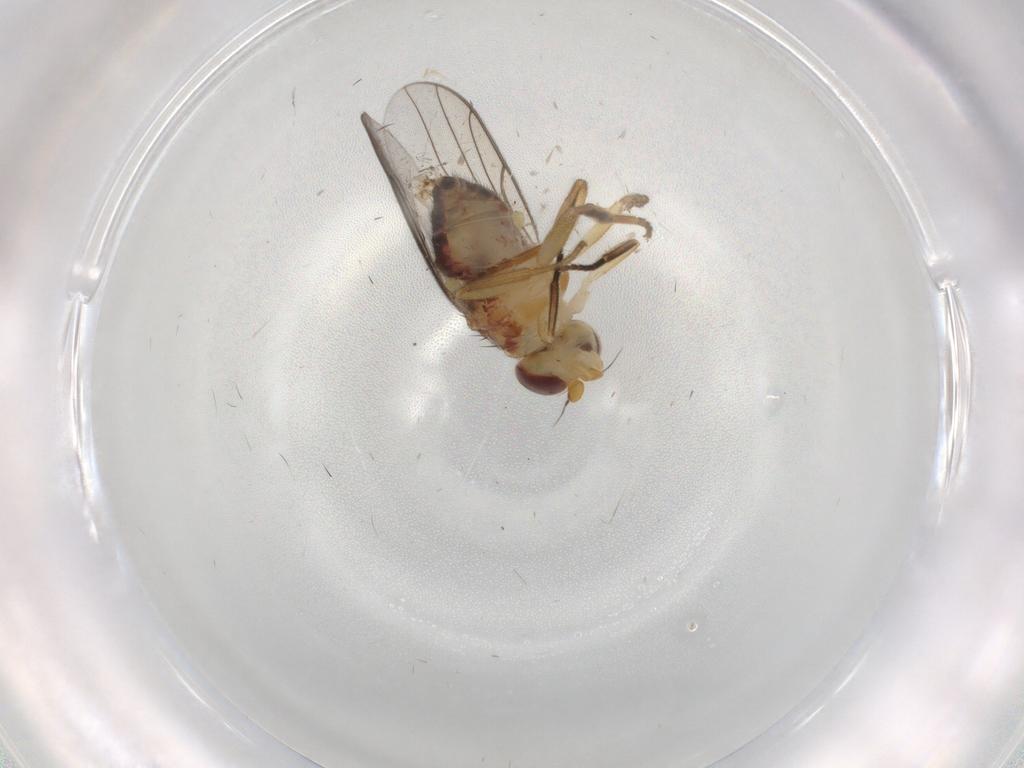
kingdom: Animalia
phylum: Arthropoda
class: Insecta
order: Diptera
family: Chloropidae
